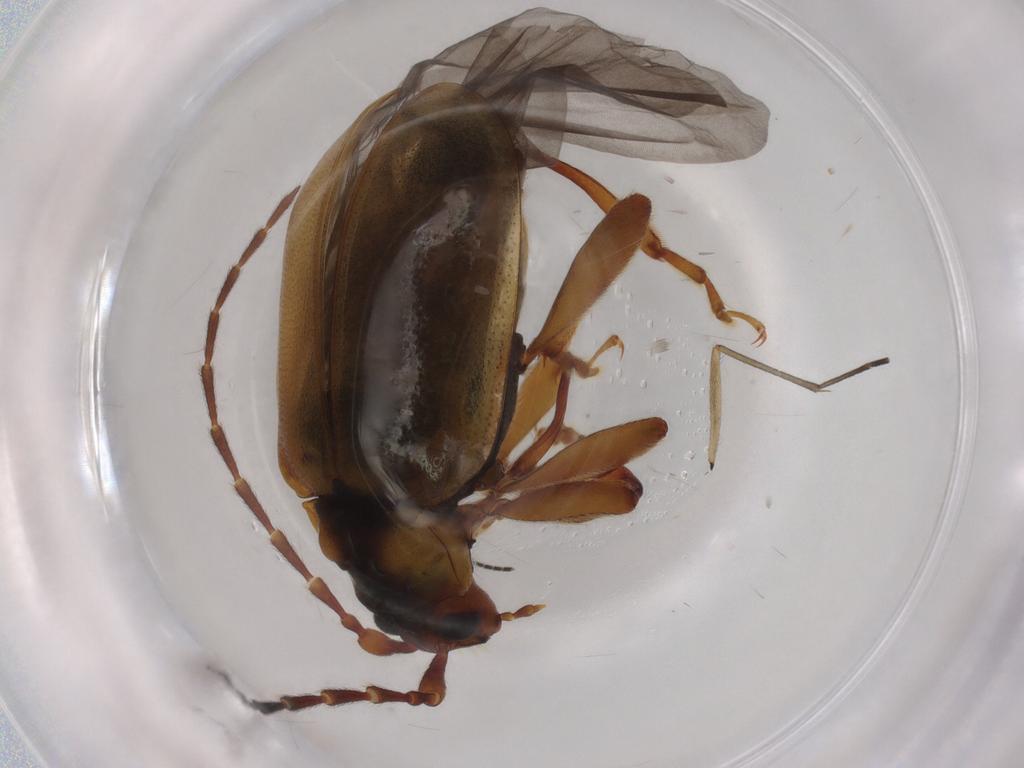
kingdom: Animalia
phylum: Arthropoda
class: Insecta
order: Coleoptera
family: Chrysomelidae
